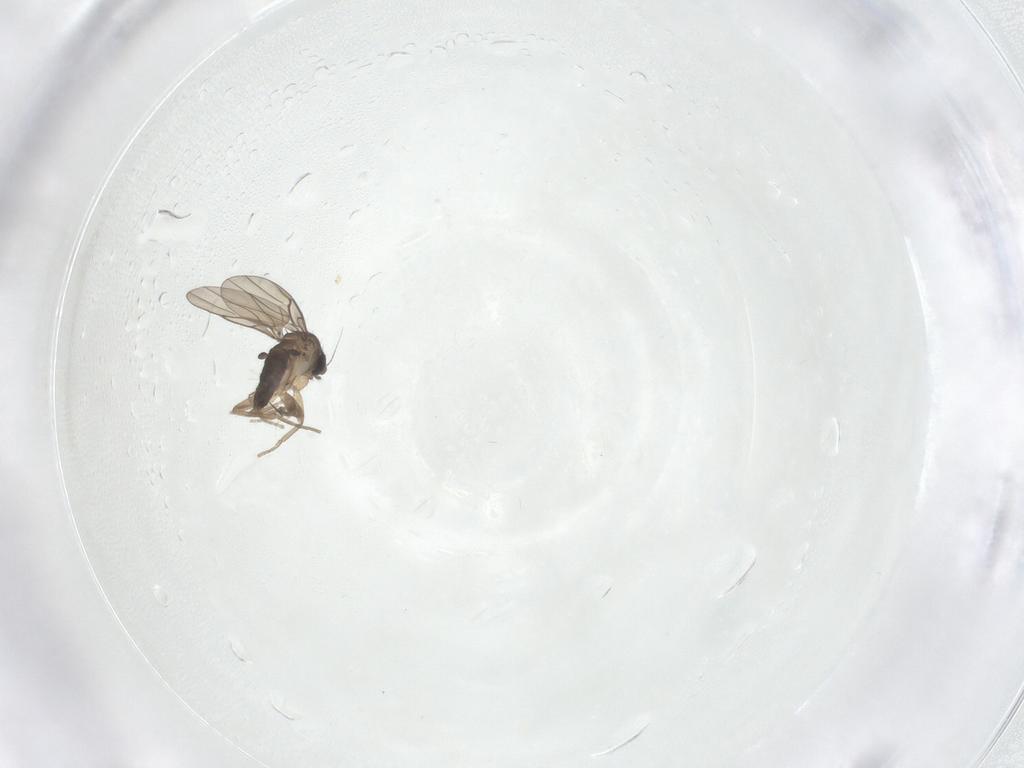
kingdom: Animalia
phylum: Arthropoda
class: Insecta
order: Diptera
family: Phoridae
